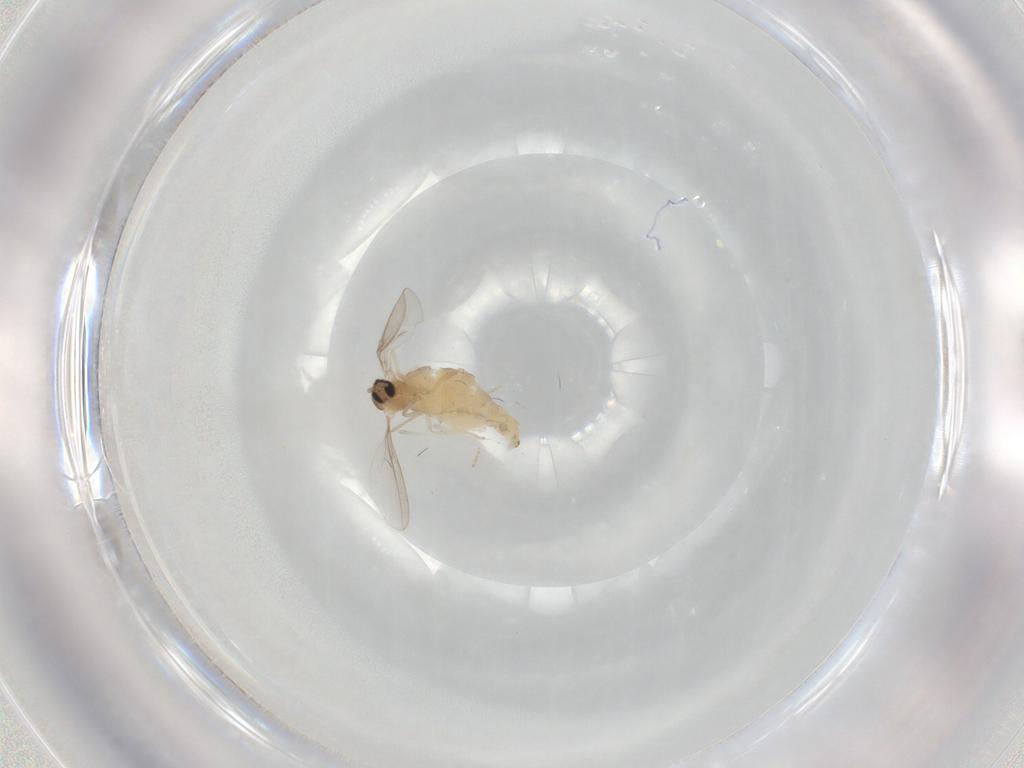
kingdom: Animalia
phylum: Arthropoda
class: Insecta
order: Diptera
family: Cecidomyiidae
